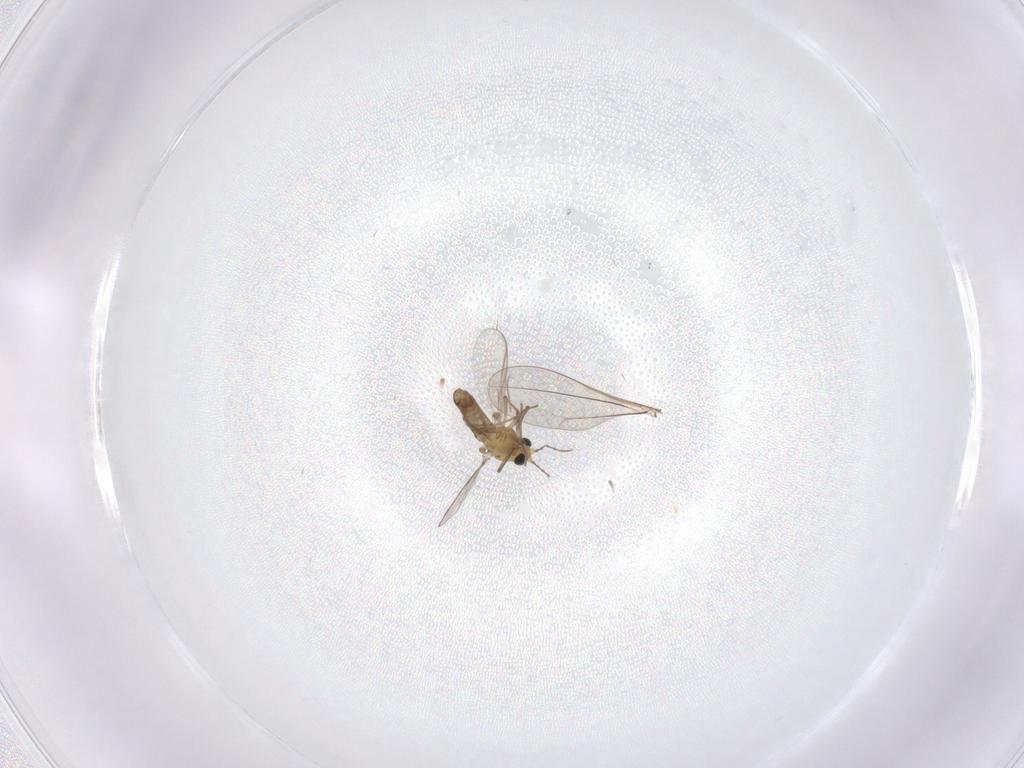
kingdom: Animalia
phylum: Arthropoda
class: Insecta
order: Diptera
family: Chironomidae
